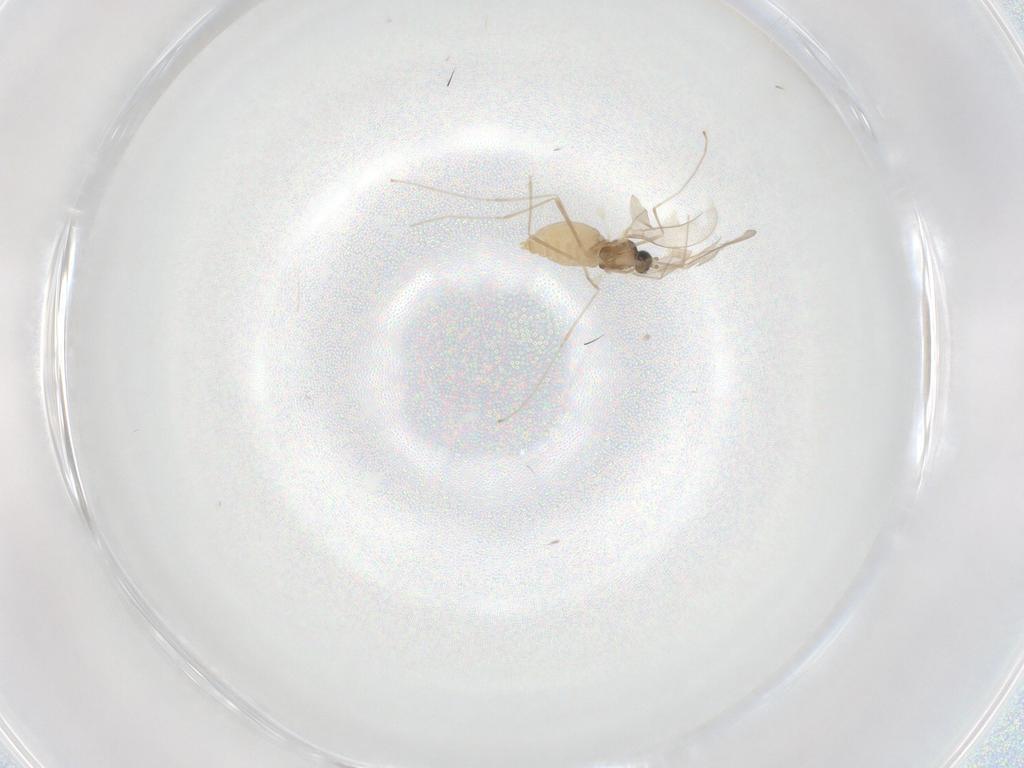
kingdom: Animalia
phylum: Arthropoda
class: Insecta
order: Diptera
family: Cecidomyiidae
